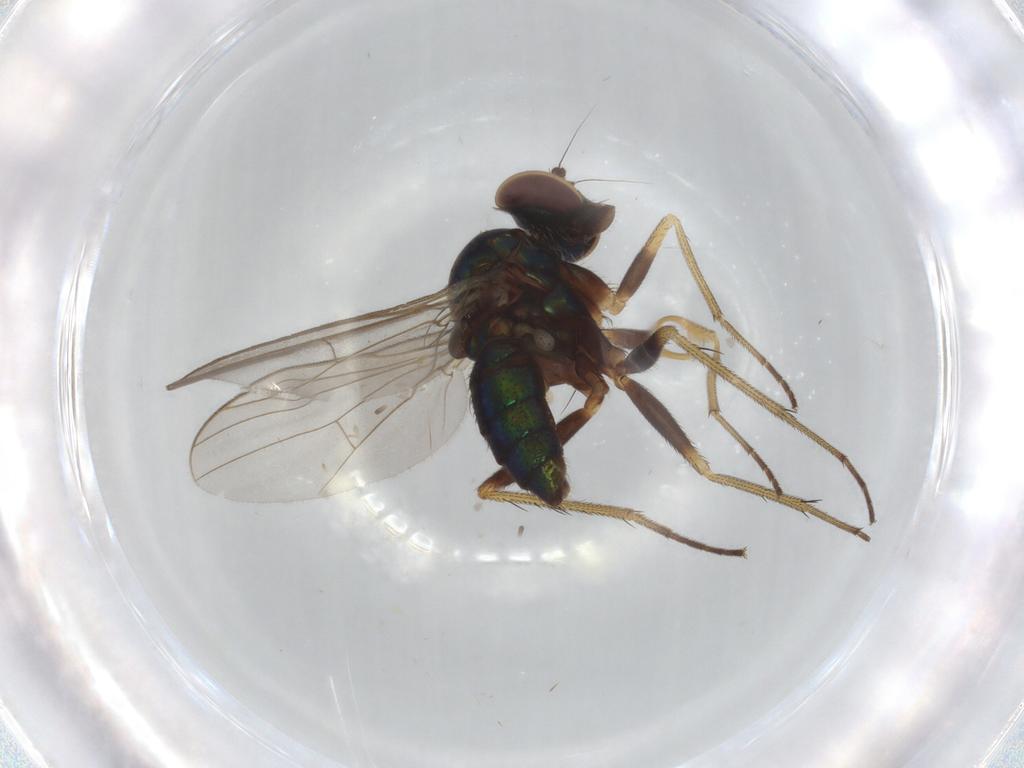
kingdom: Animalia
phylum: Arthropoda
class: Insecta
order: Diptera
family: Dolichopodidae
